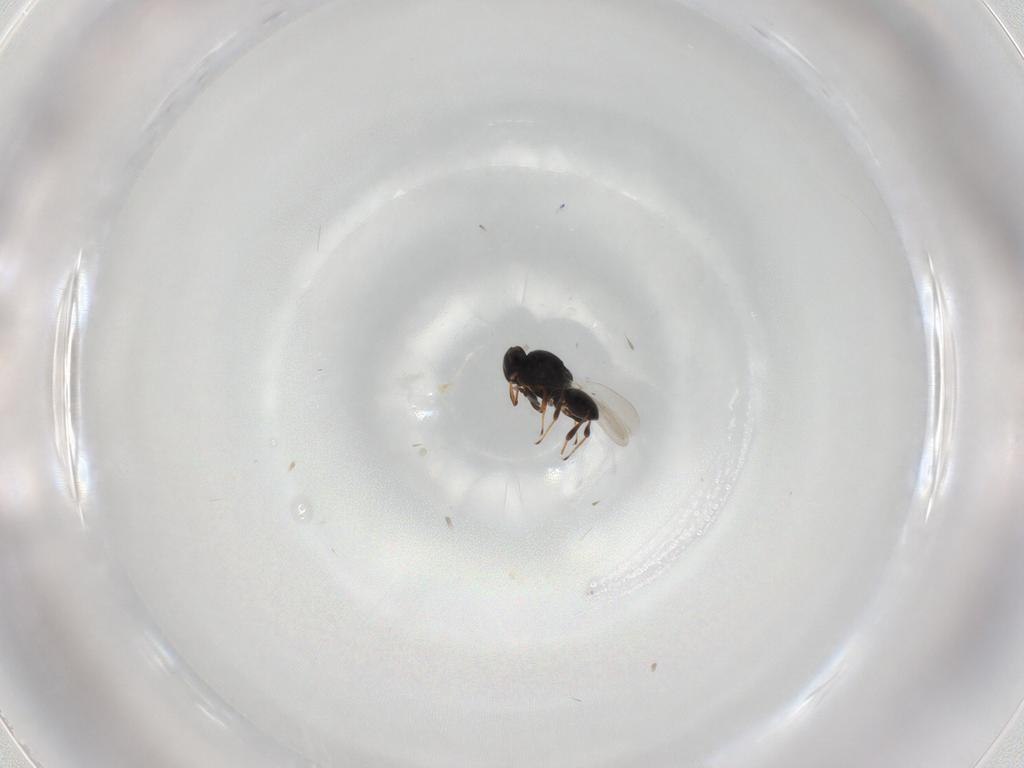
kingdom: Animalia
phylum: Arthropoda
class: Insecta
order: Hymenoptera
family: Platygastridae
